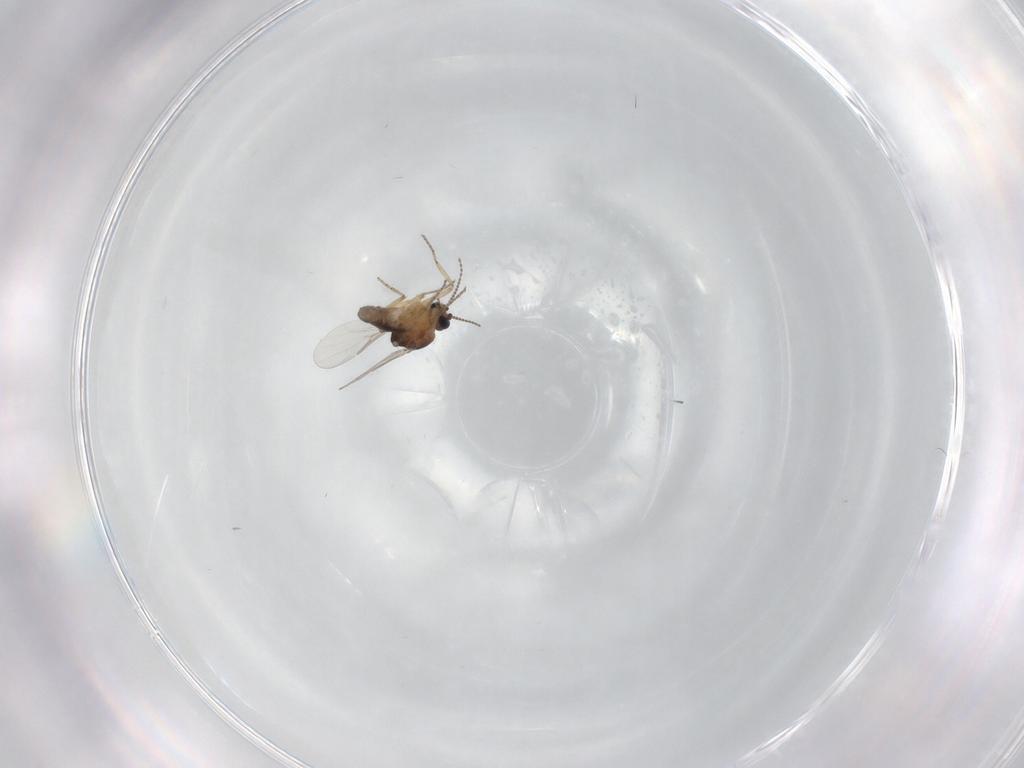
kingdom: Animalia
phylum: Arthropoda
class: Insecta
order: Diptera
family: Ceratopogonidae
